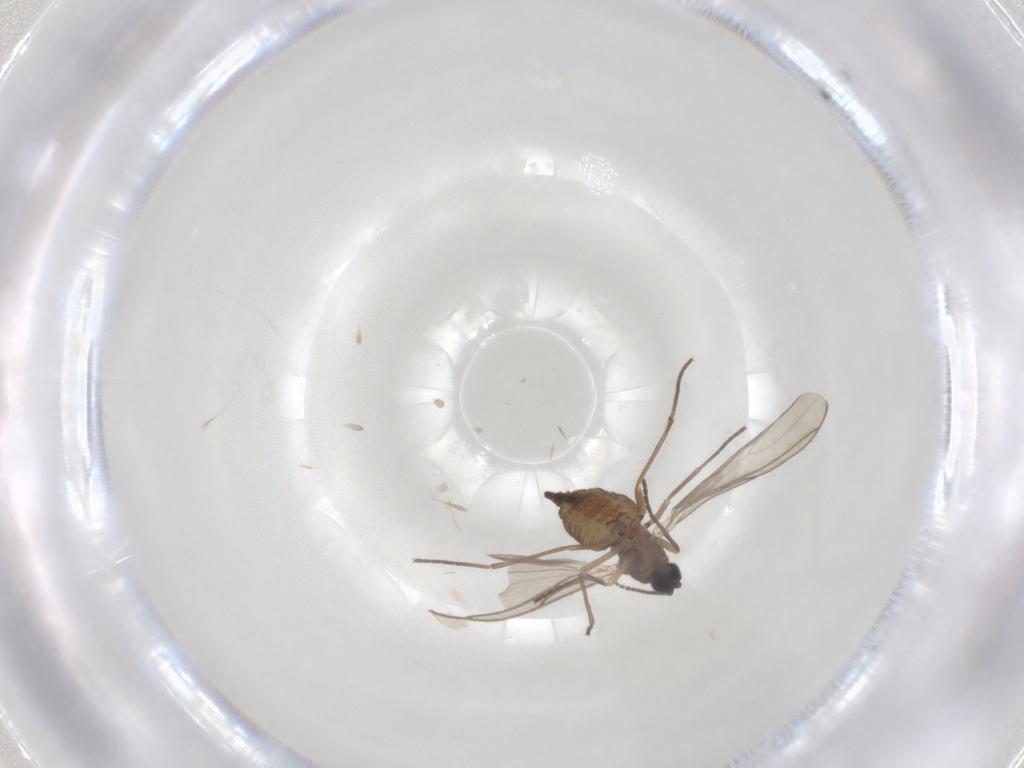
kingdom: Animalia
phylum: Arthropoda
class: Insecta
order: Diptera
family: Sciaridae
